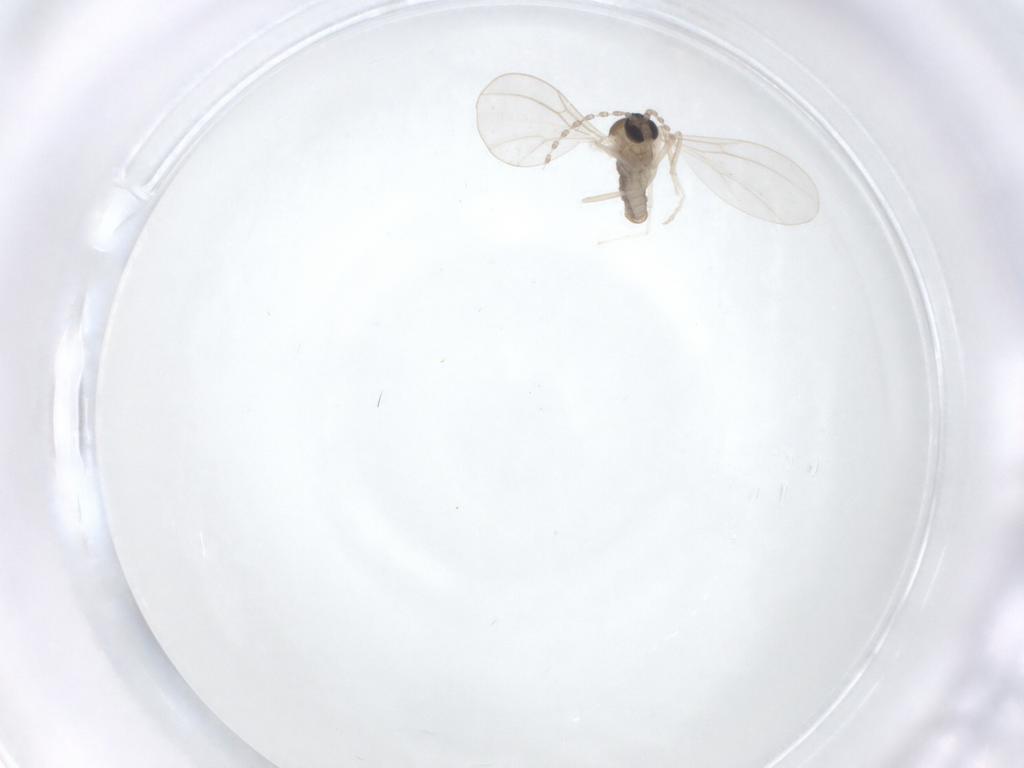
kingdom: Animalia
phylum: Arthropoda
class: Insecta
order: Diptera
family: Cecidomyiidae
